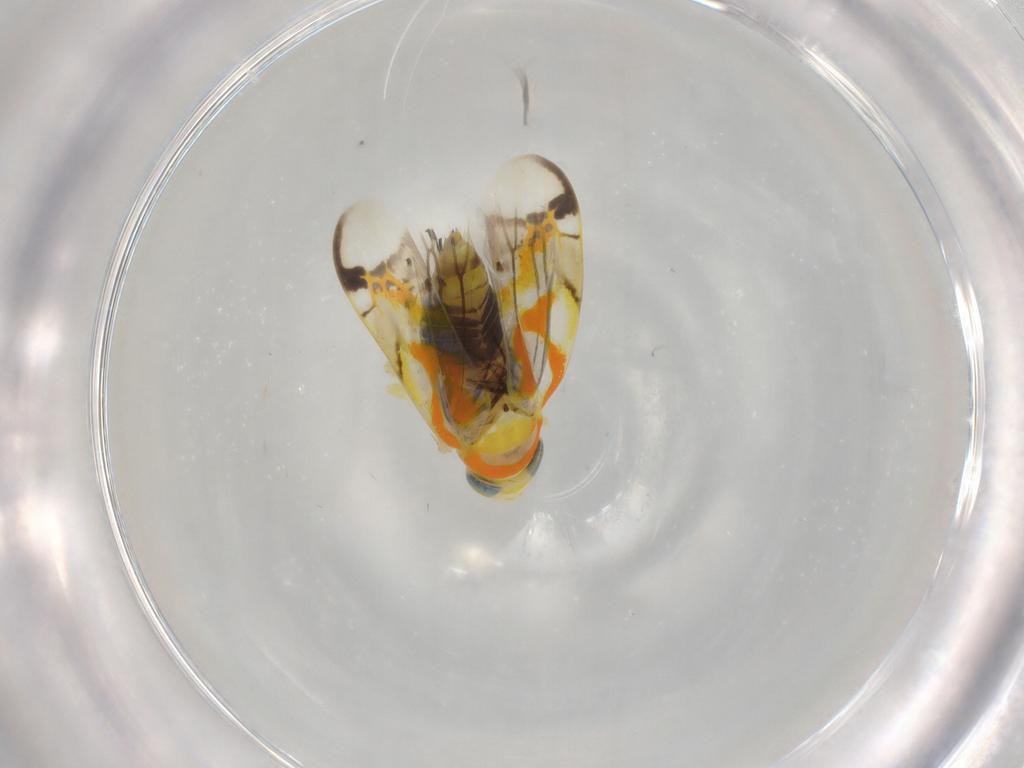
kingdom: Animalia
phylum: Arthropoda
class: Insecta
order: Hemiptera
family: Cicadellidae
